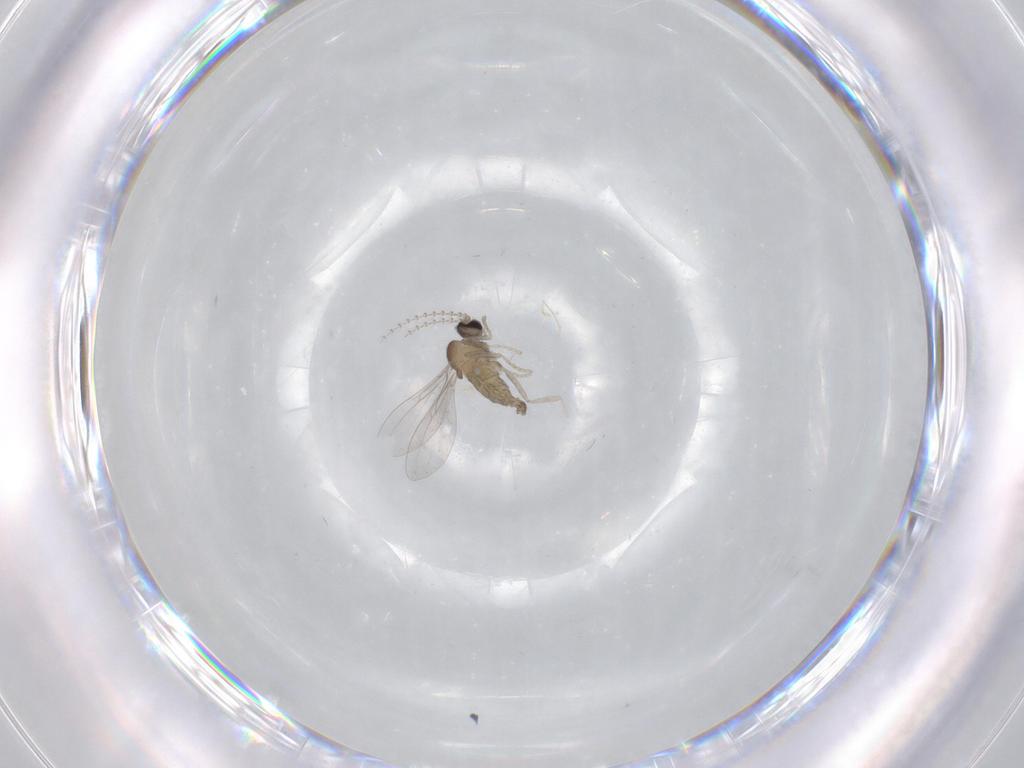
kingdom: Animalia
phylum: Arthropoda
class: Insecta
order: Diptera
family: Cecidomyiidae
